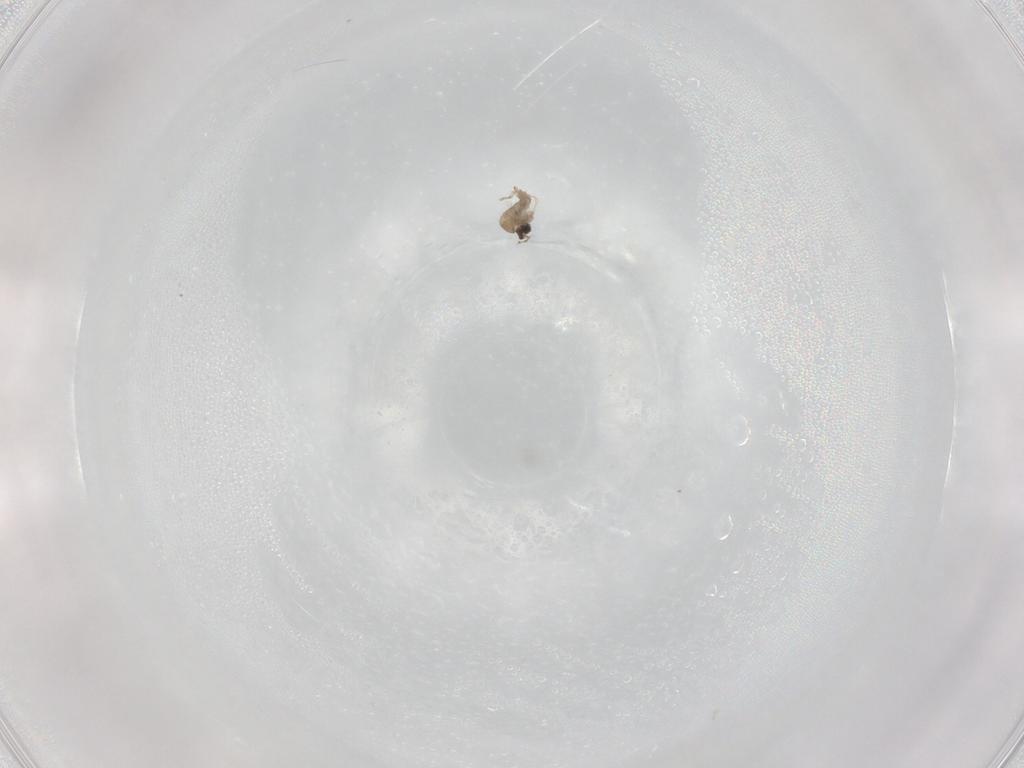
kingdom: Animalia
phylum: Arthropoda
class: Insecta
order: Diptera
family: Cecidomyiidae
